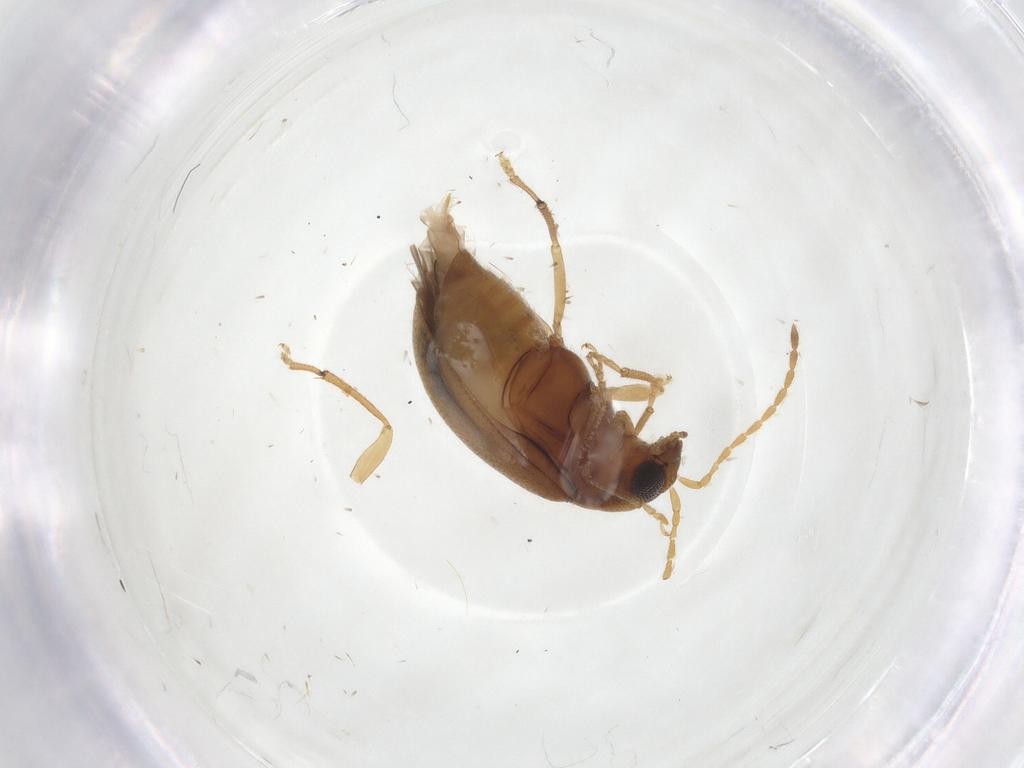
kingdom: Animalia
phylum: Arthropoda
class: Insecta
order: Coleoptera
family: Chrysomelidae
